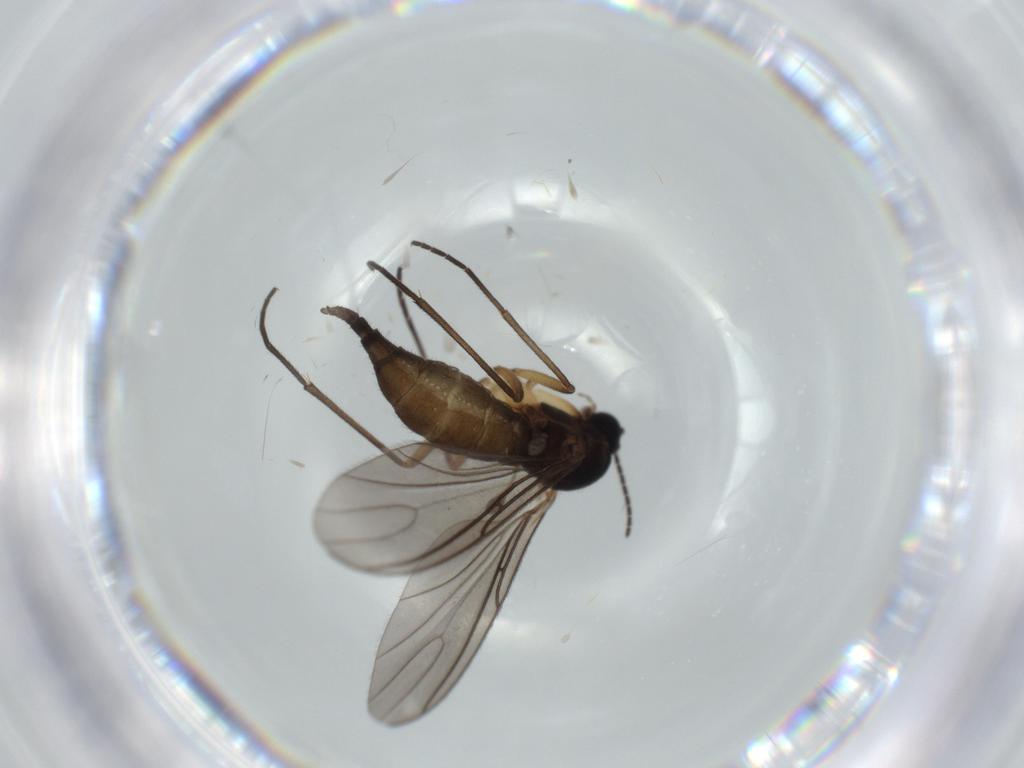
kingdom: Animalia
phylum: Arthropoda
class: Insecta
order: Diptera
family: Sciaridae
